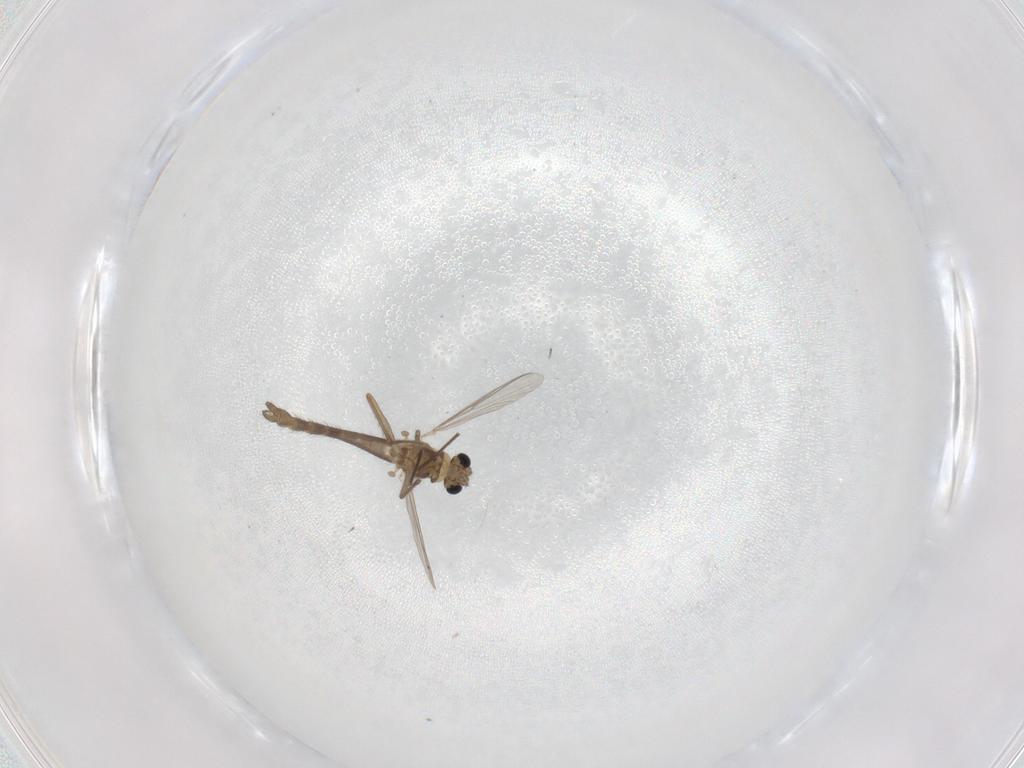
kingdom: Animalia
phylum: Arthropoda
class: Insecta
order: Diptera
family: Chironomidae
